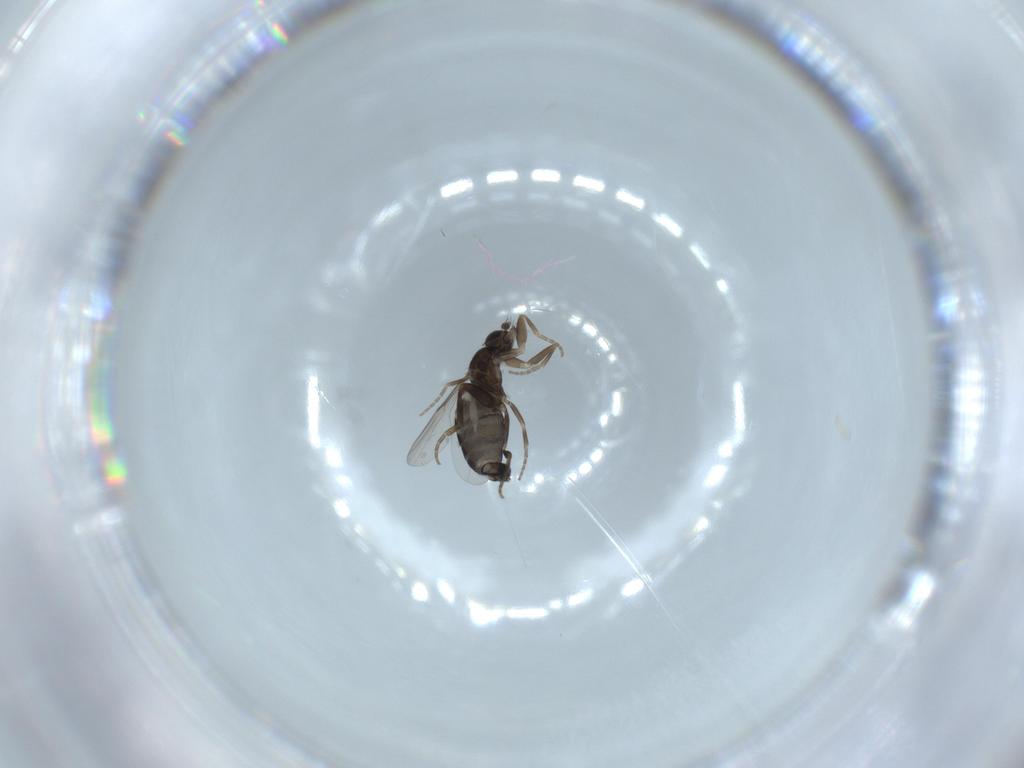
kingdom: Animalia
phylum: Arthropoda
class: Insecta
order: Diptera
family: Phoridae
